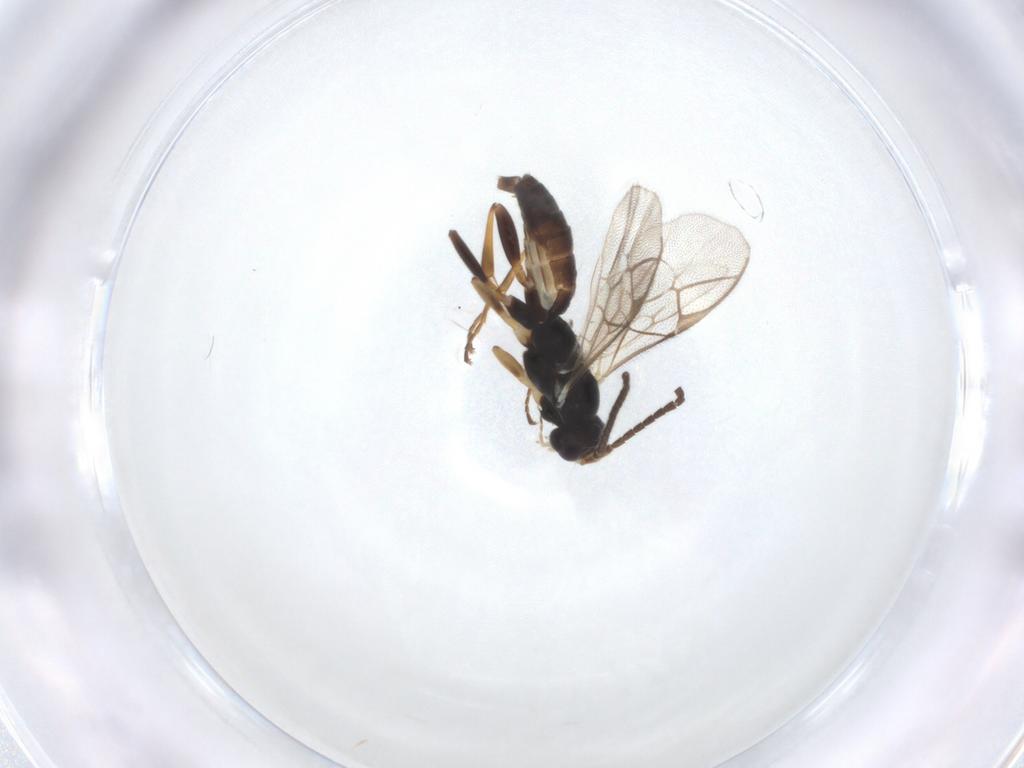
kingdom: Animalia
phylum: Arthropoda
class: Insecta
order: Hymenoptera
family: Ichneumonidae
